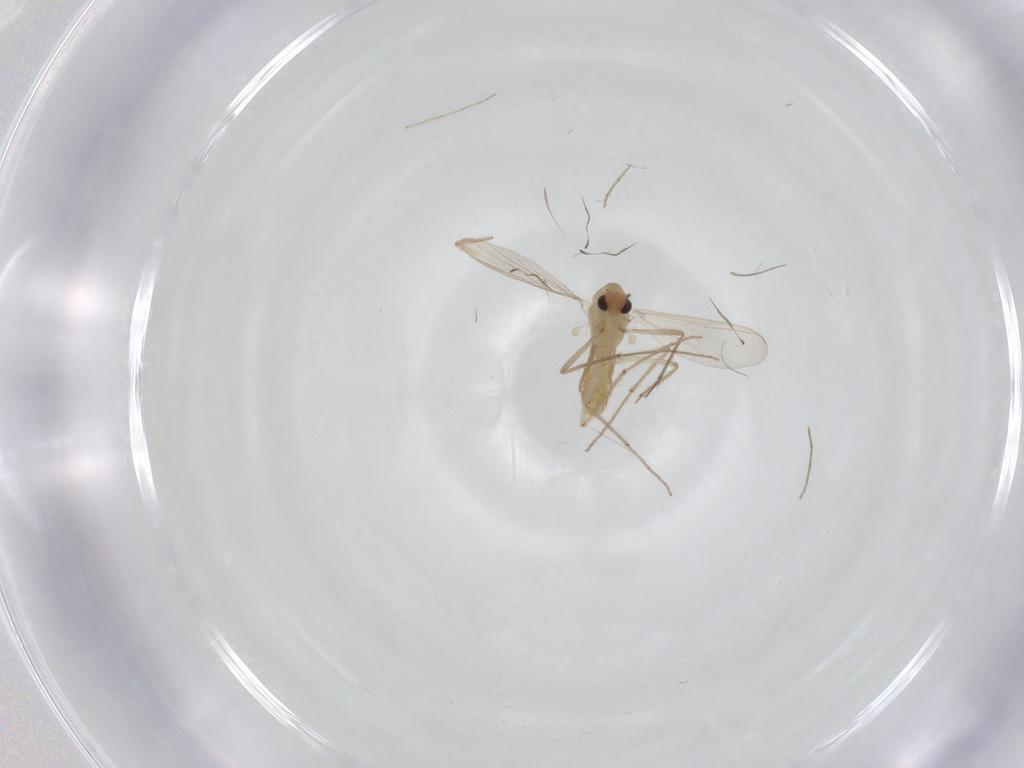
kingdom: Animalia
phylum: Arthropoda
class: Insecta
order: Diptera
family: Chironomidae
